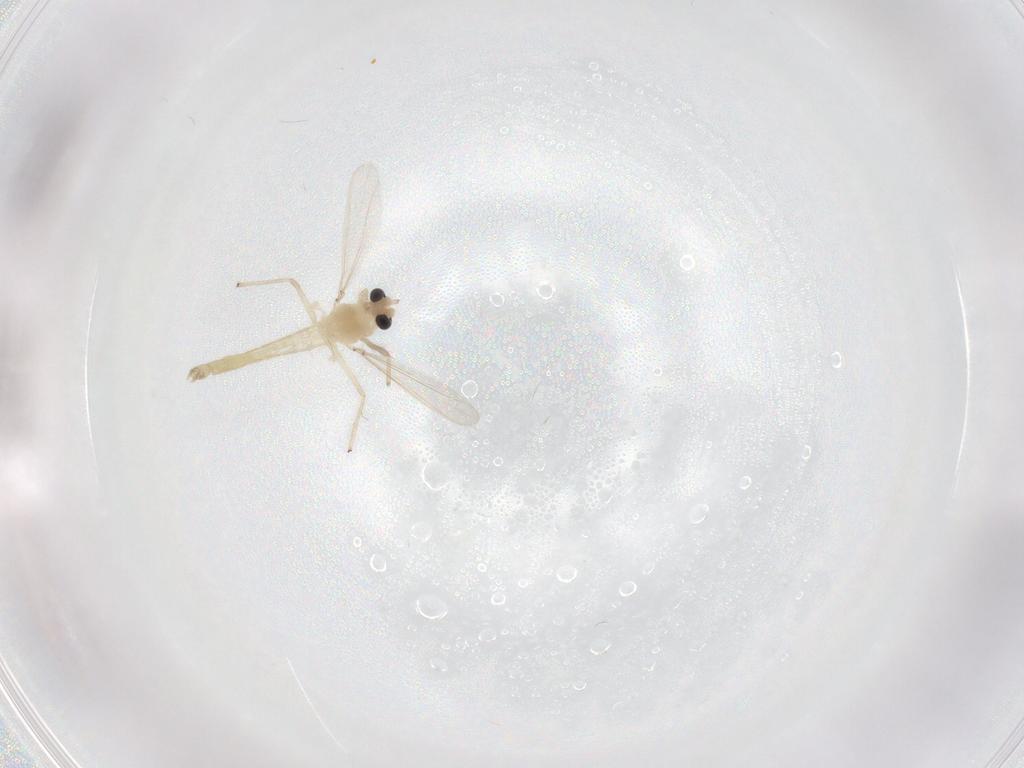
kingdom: Animalia
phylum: Arthropoda
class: Insecta
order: Diptera
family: Chironomidae
